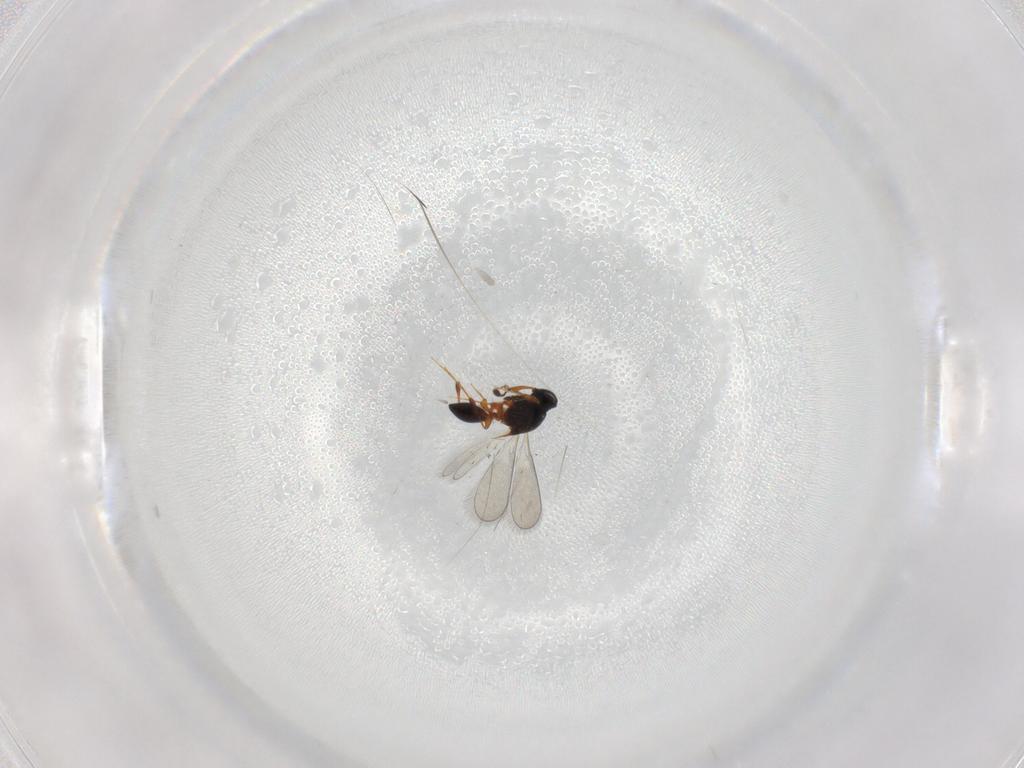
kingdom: Animalia
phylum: Arthropoda
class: Insecta
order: Hymenoptera
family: Platygastridae
